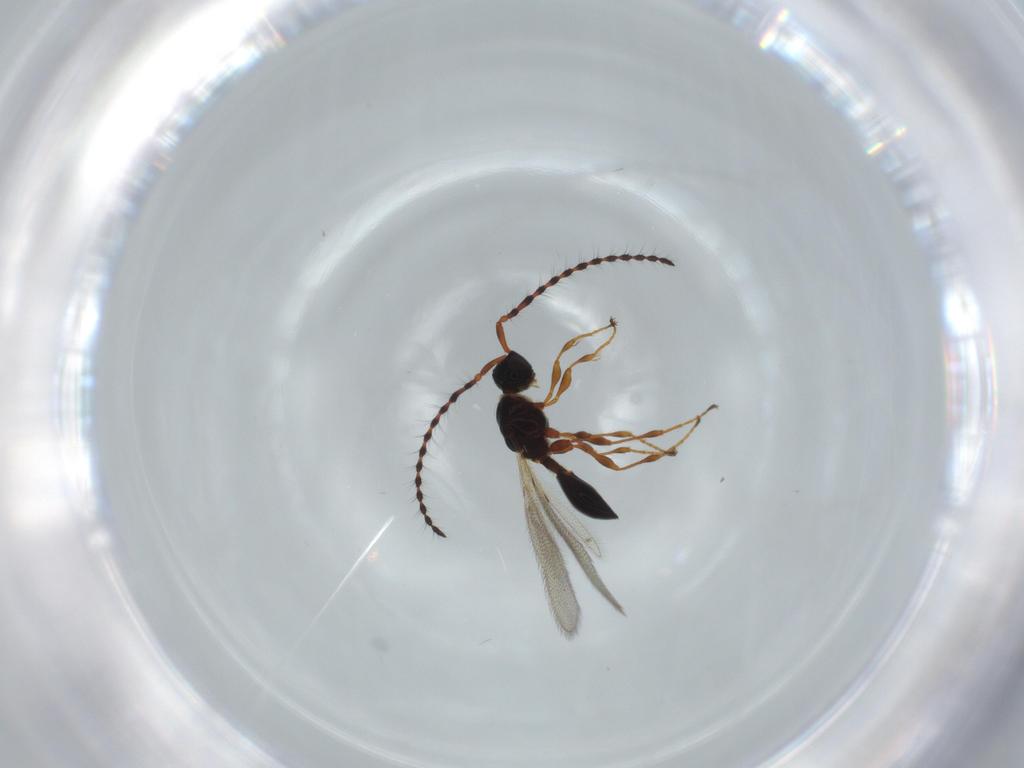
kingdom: Animalia
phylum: Arthropoda
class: Insecta
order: Hymenoptera
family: Diapriidae
